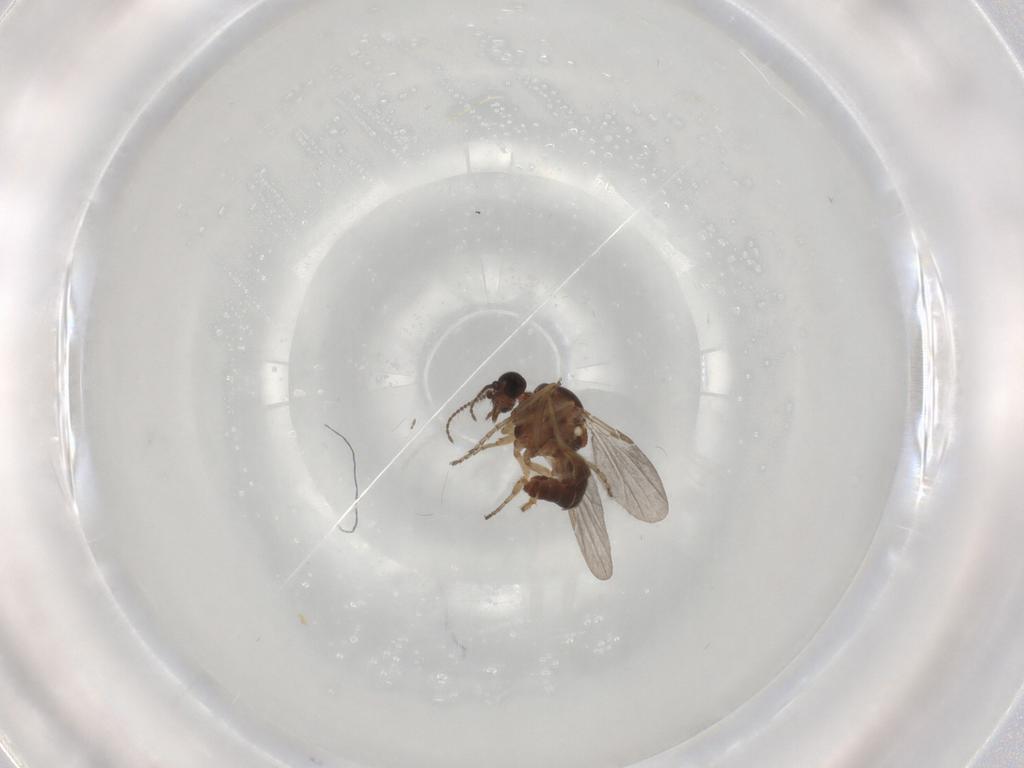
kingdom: Animalia
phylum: Arthropoda
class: Insecta
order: Diptera
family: Ceratopogonidae
